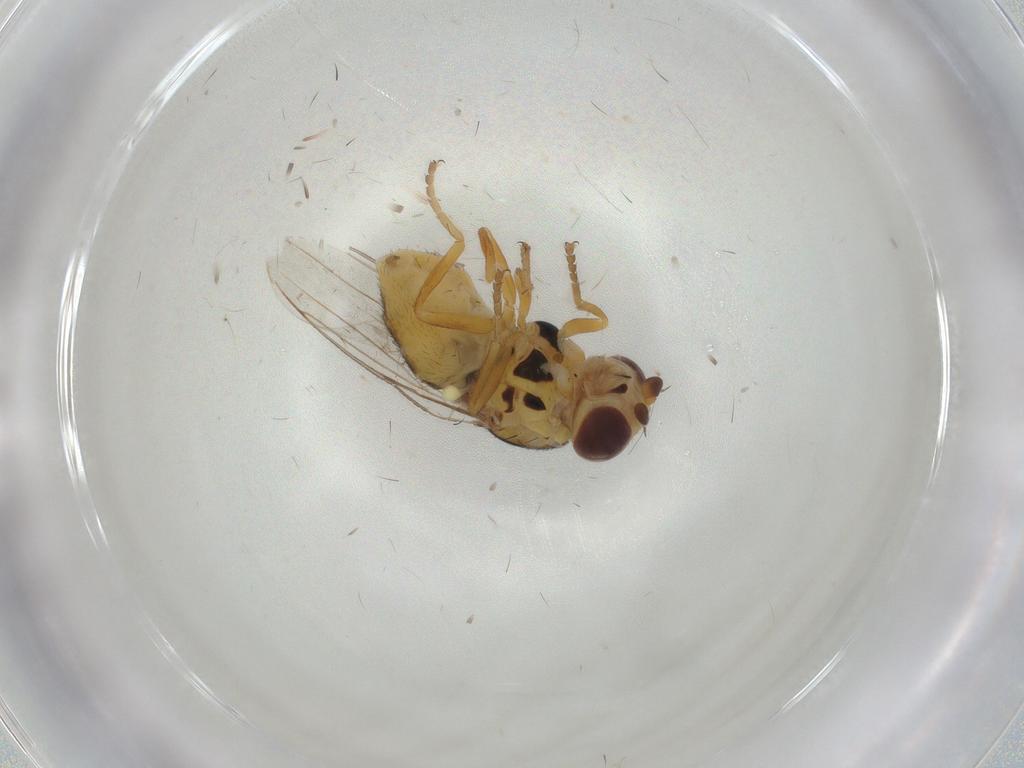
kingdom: Animalia
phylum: Arthropoda
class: Insecta
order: Diptera
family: Chloropidae
